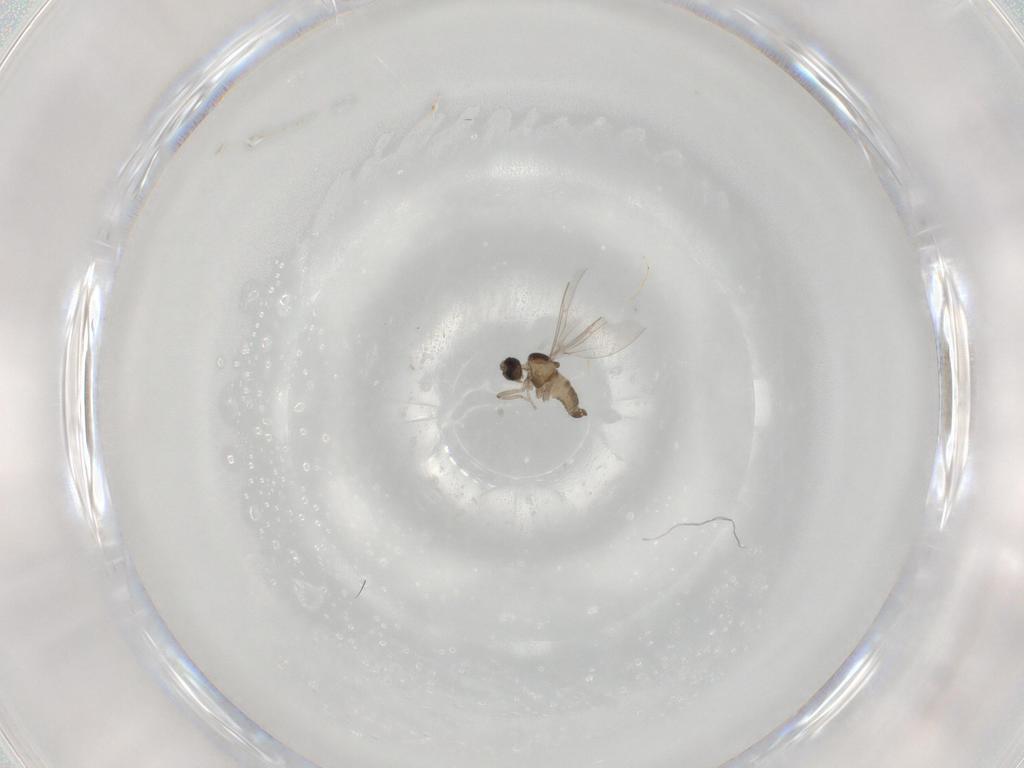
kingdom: Animalia
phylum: Arthropoda
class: Insecta
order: Diptera
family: Cecidomyiidae
